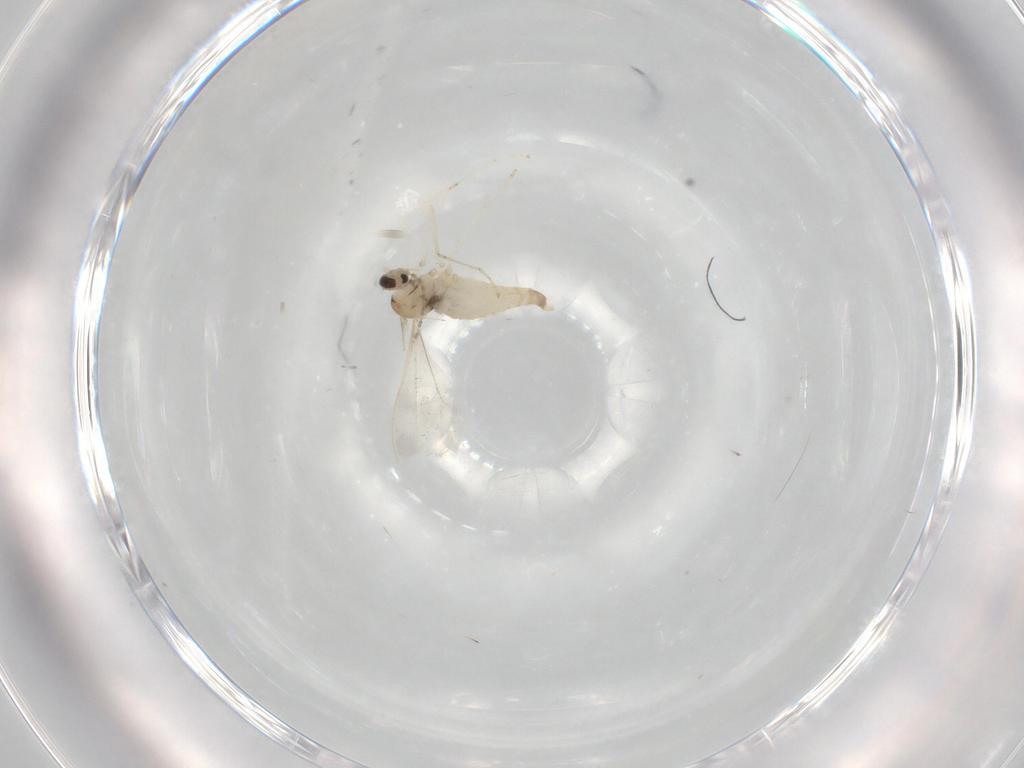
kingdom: Animalia
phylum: Arthropoda
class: Insecta
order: Diptera
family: Cecidomyiidae
